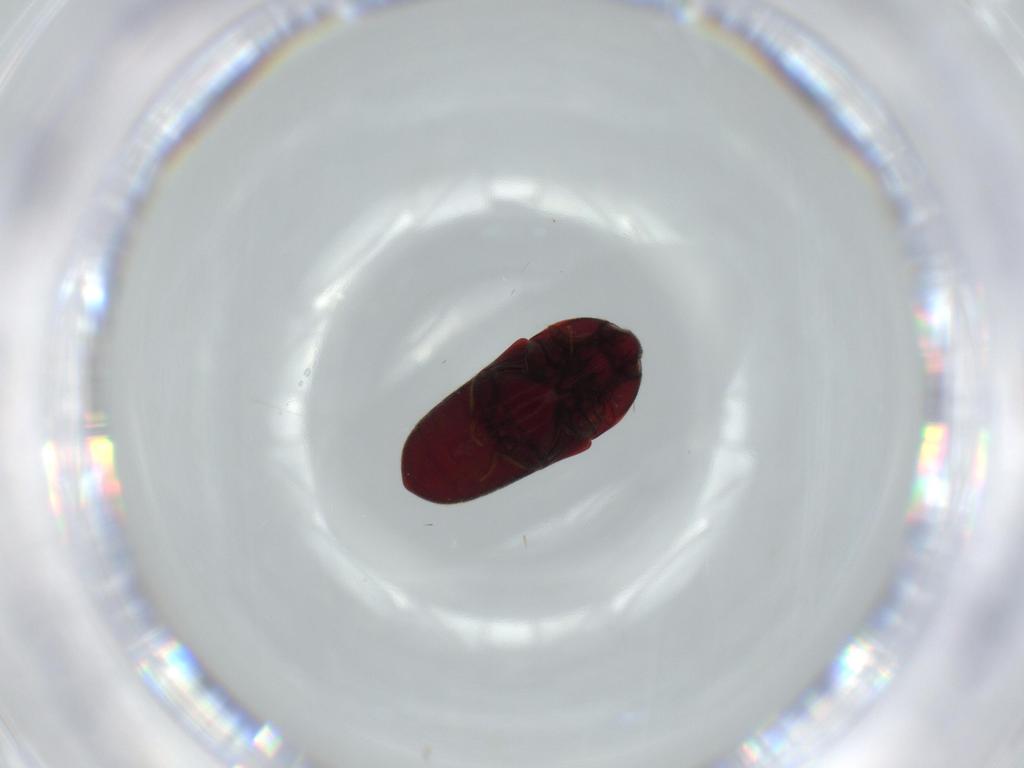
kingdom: Animalia
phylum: Arthropoda
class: Insecta
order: Coleoptera
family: Throscidae
